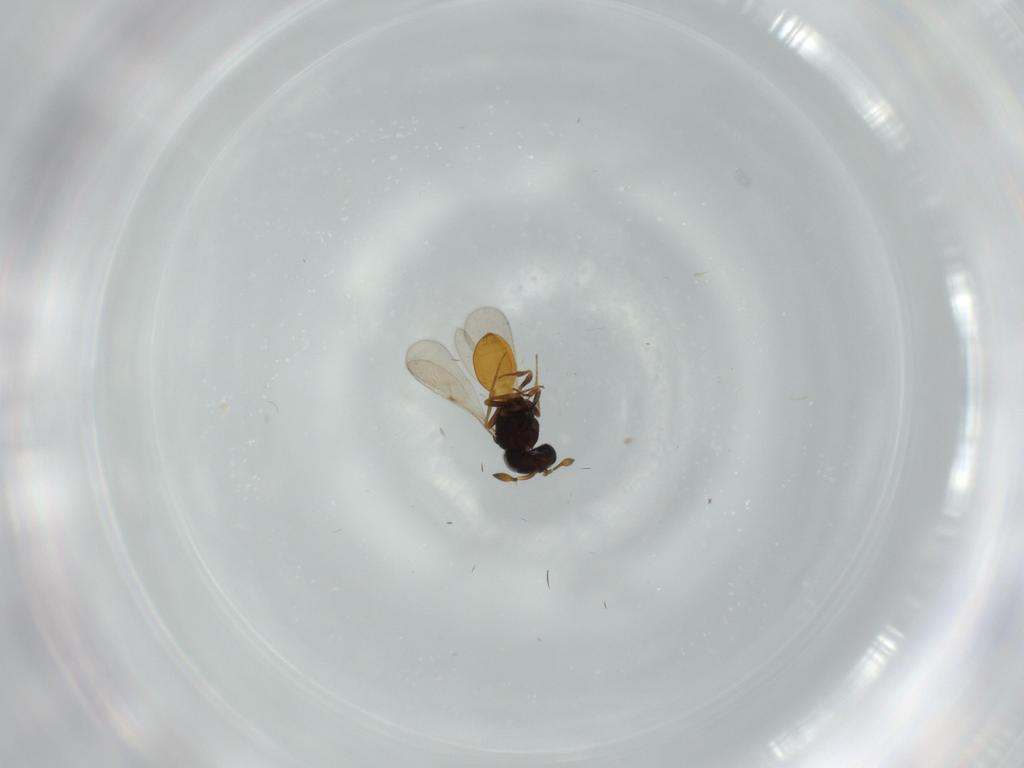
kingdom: Animalia
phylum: Arthropoda
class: Insecta
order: Hymenoptera
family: Scelionidae
